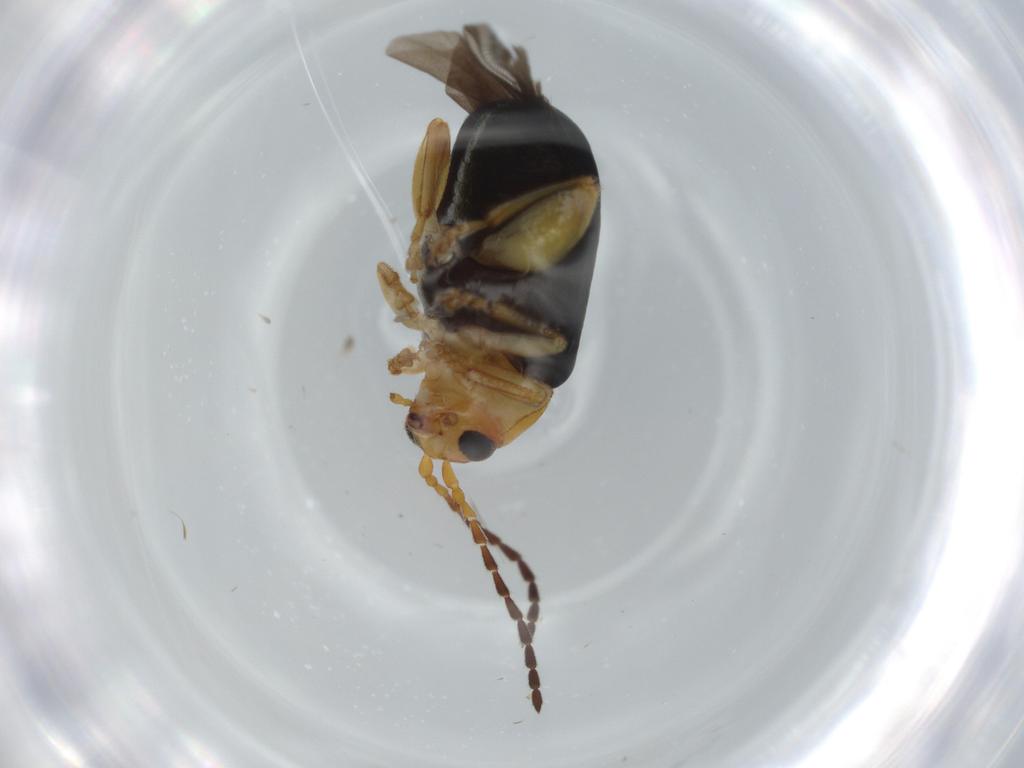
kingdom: Animalia
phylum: Arthropoda
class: Insecta
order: Coleoptera
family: Chrysomelidae
